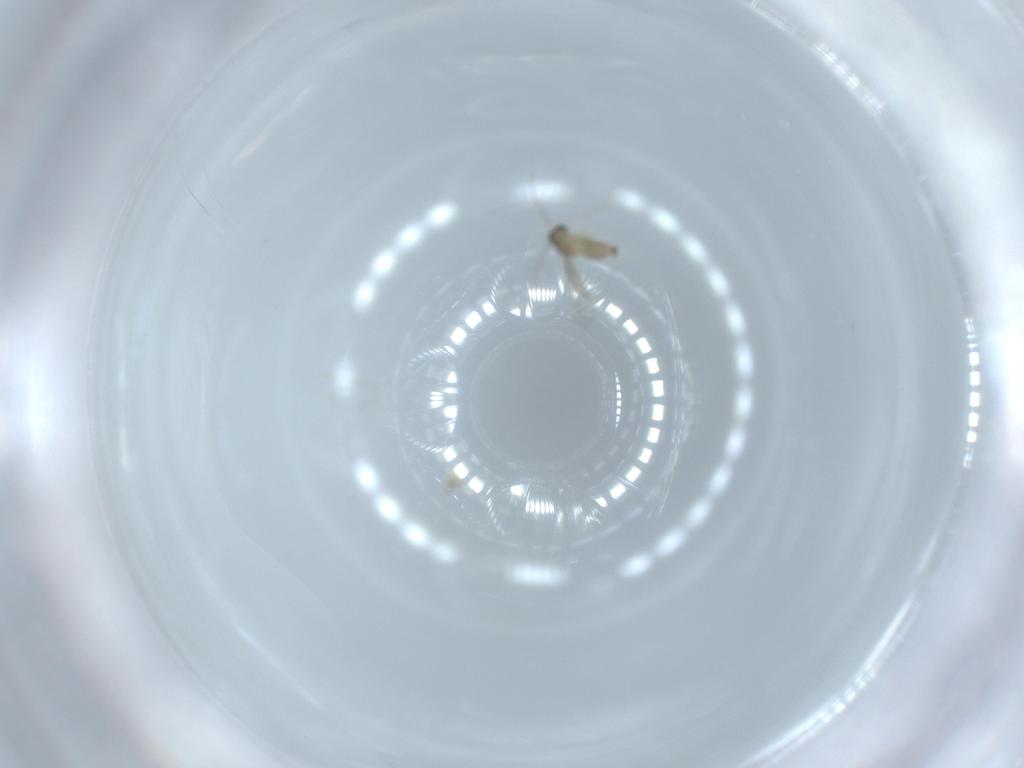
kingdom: Animalia
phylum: Arthropoda
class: Insecta
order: Diptera
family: Cecidomyiidae
